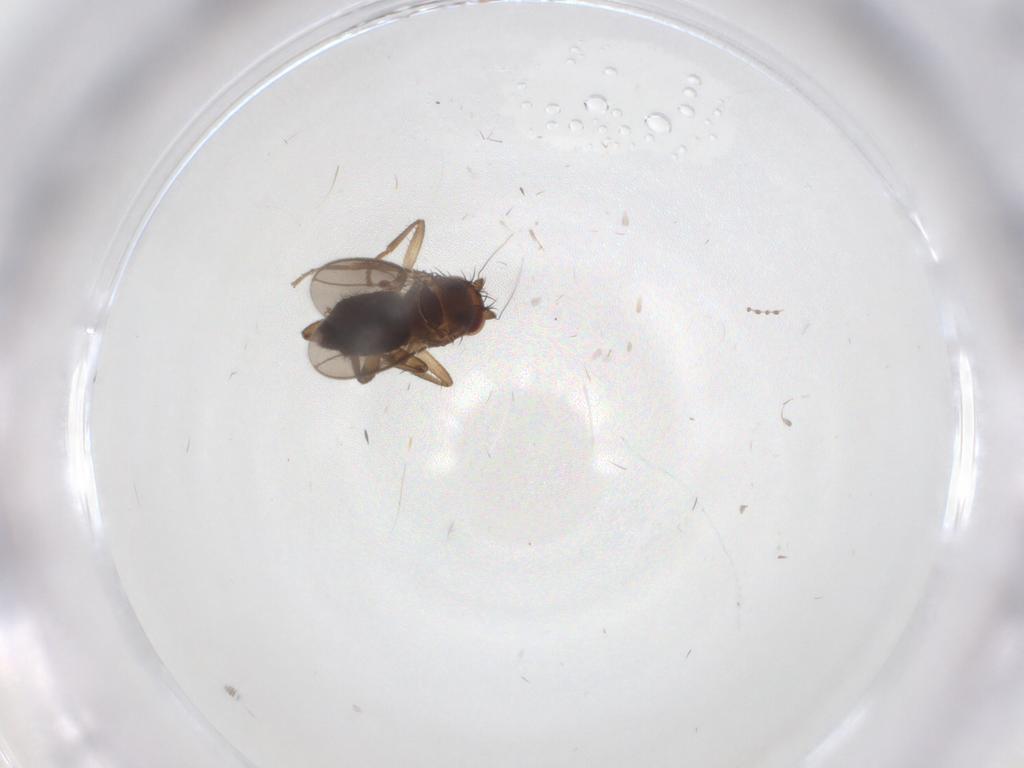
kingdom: Animalia
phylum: Arthropoda
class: Insecta
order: Diptera
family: Sphaeroceridae
